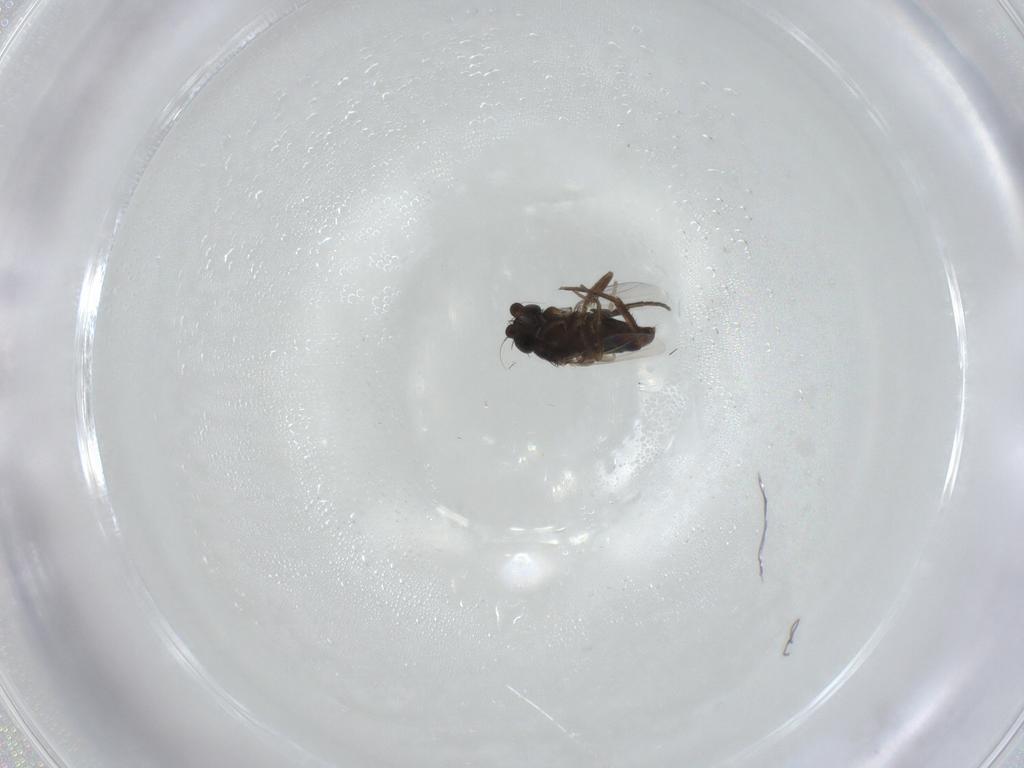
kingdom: Animalia
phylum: Arthropoda
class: Insecta
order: Diptera
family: Phoridae
